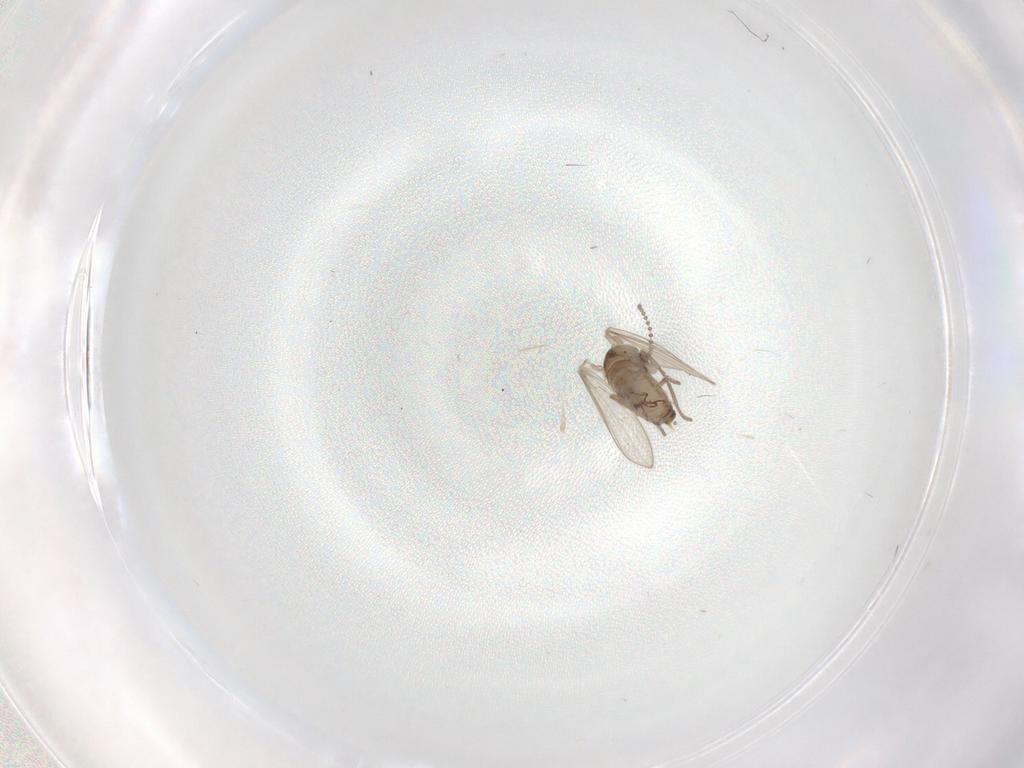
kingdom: Animalia
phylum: Arthropoda
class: Insecta
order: Diptera
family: Psychodidae
